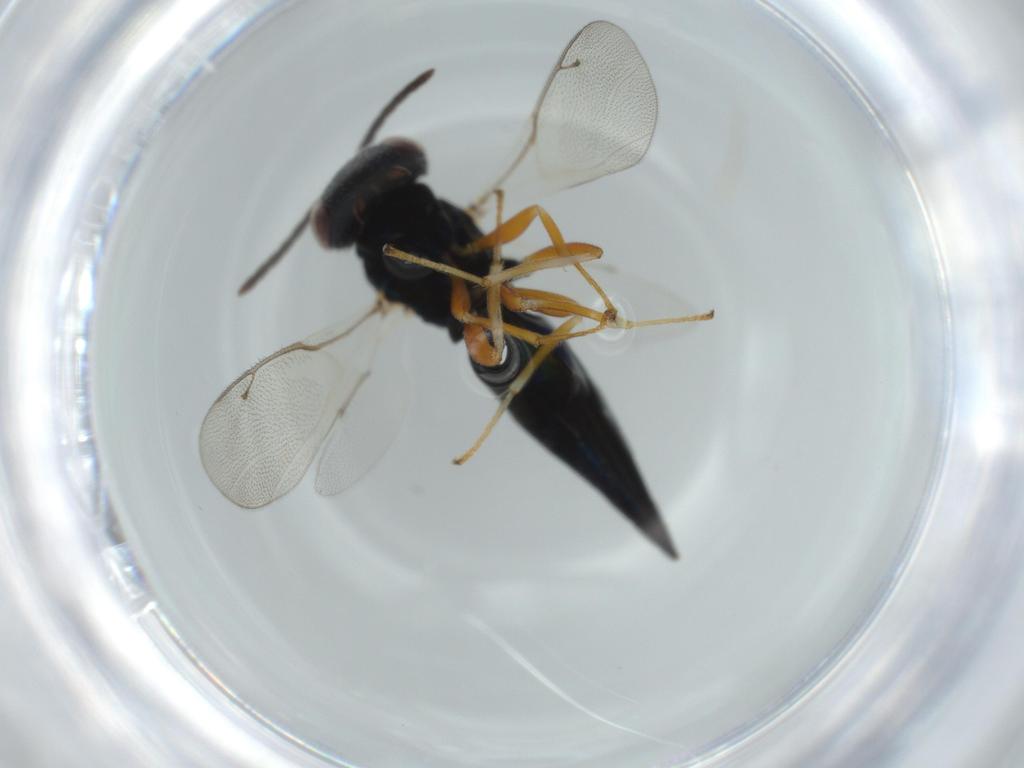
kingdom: Animalia
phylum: Arthropoda
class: Insecta
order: Hymenoptera
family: Pteromalidae
